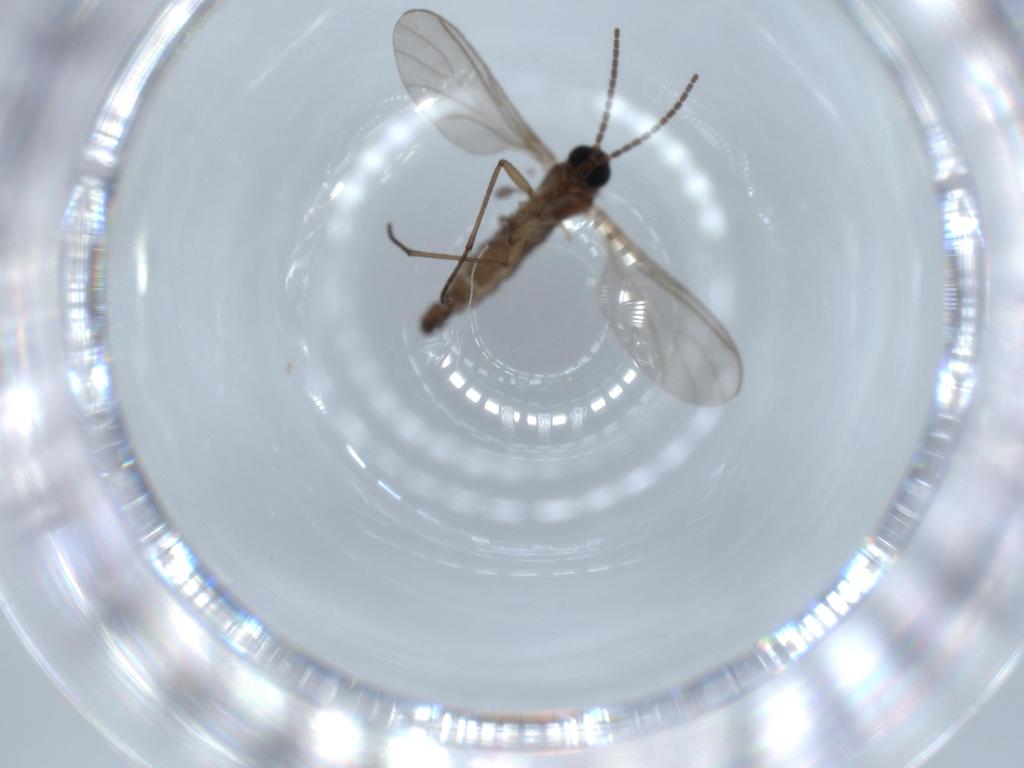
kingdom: Animalia
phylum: Arthropoda
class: Insecta
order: Diptera
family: Sciaridae
